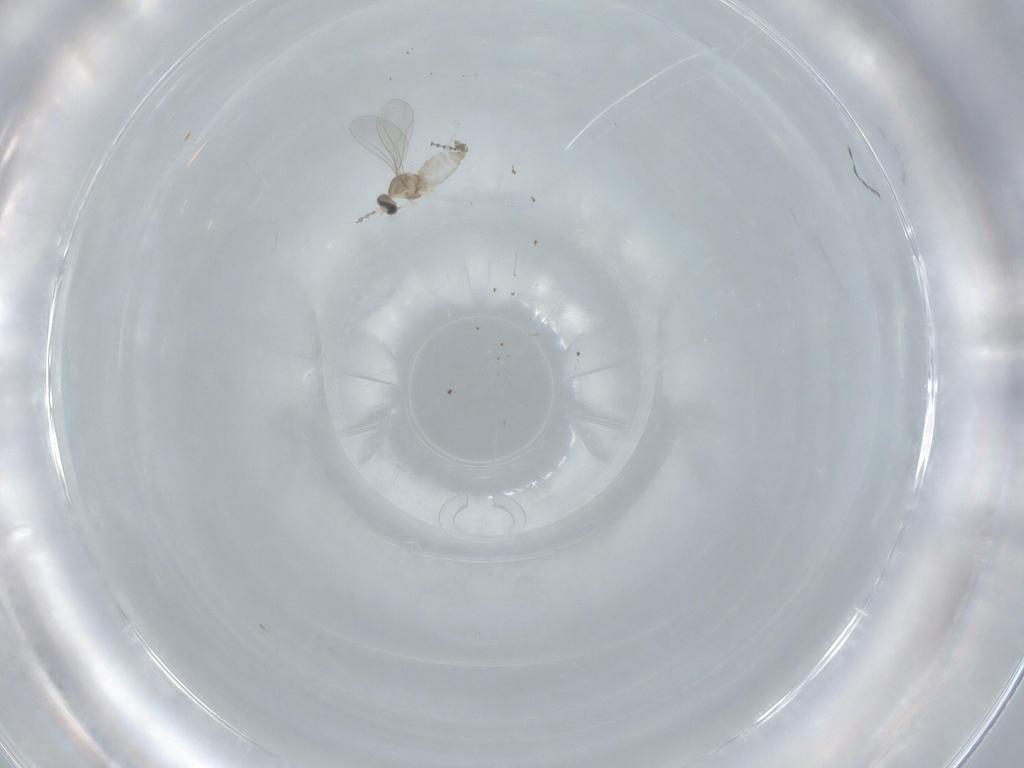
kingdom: Animalia
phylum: Arthropoda
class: Insecta
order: Diptera
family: Cecidomyiidae
